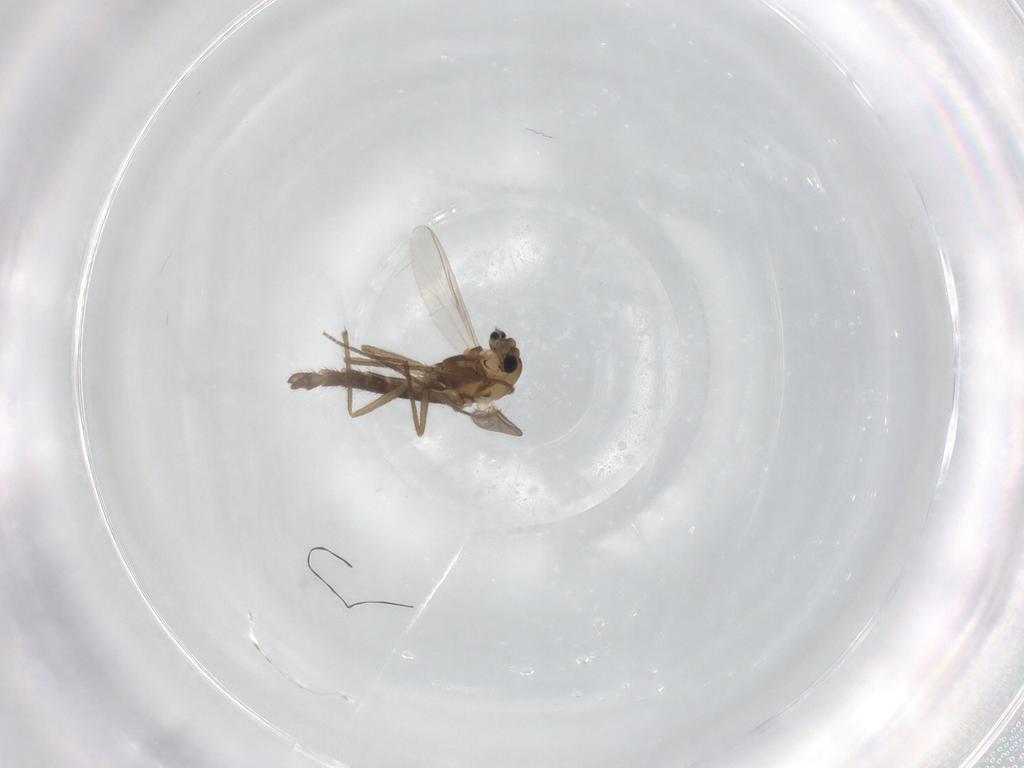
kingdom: Animalia
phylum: Arthropoda
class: Insecta
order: Diptera
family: Chironomidae
